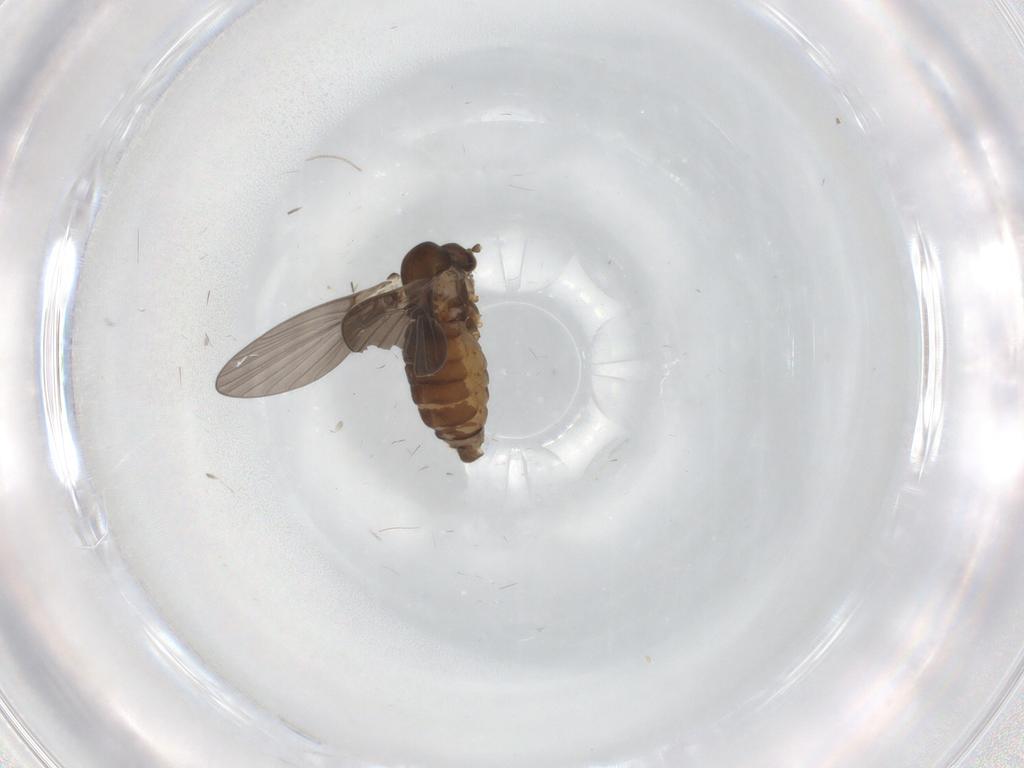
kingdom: Animalia
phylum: Arthropoda
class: Insecta
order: Diptera
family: Psychodidae
